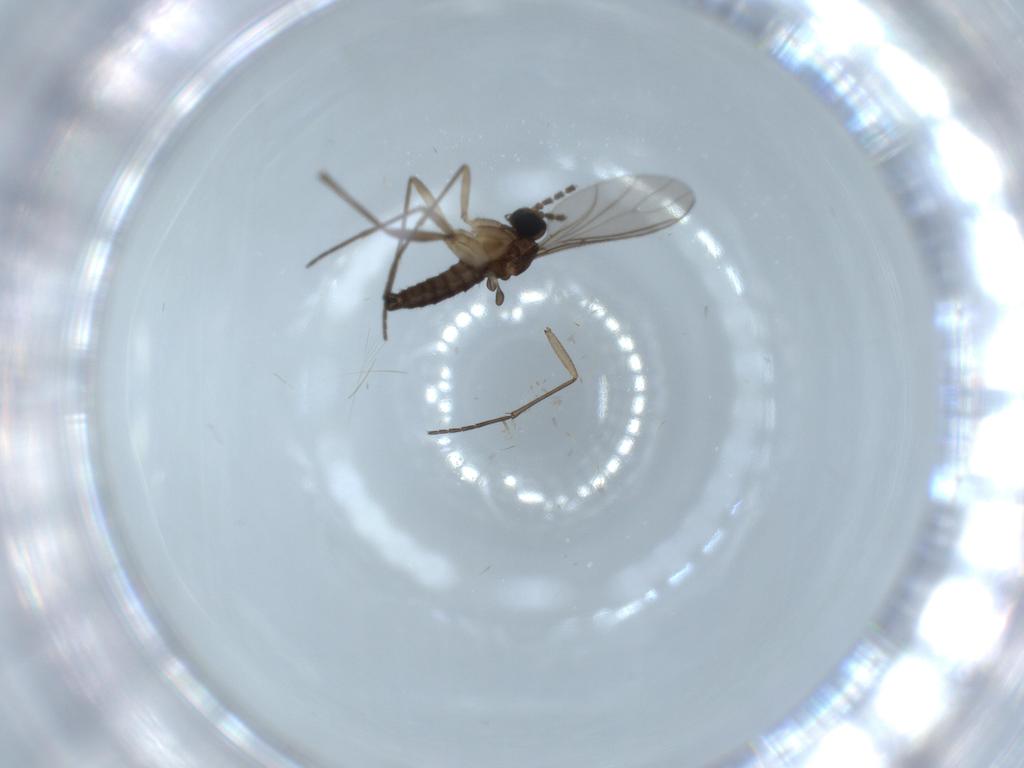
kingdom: Animalia
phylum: Arthropoda
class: Insecta
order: Diptera
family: Sciaridae
